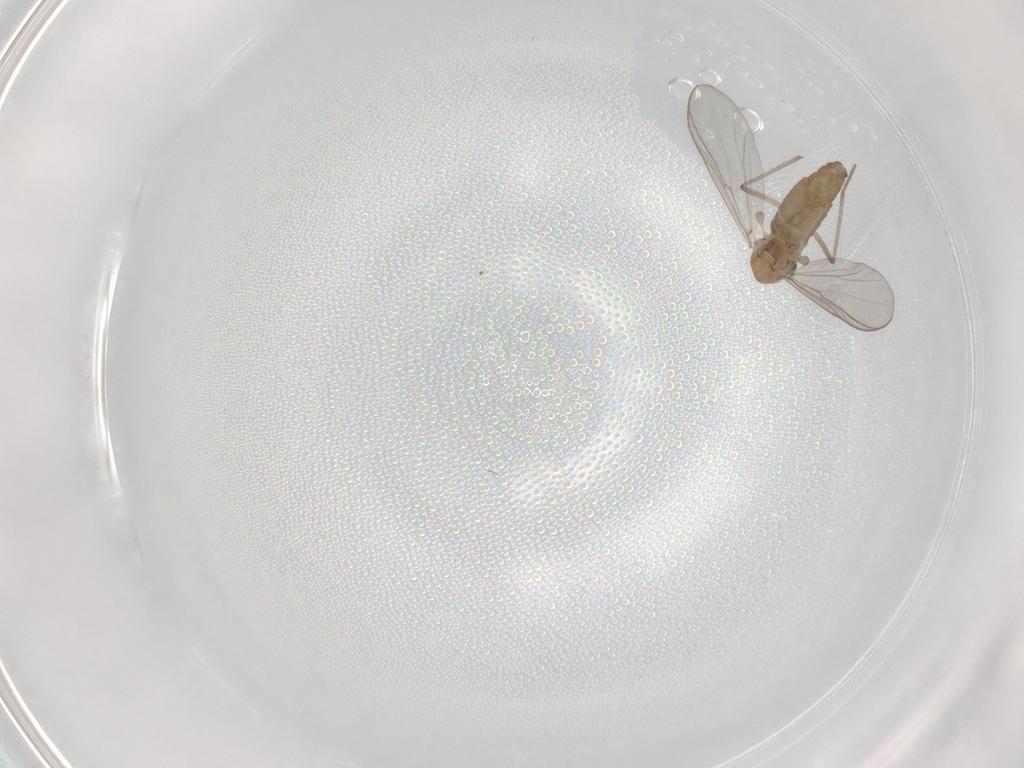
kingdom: Animalia
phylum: Arthropoda
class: Insecta
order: Diptera
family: Chironomidae
